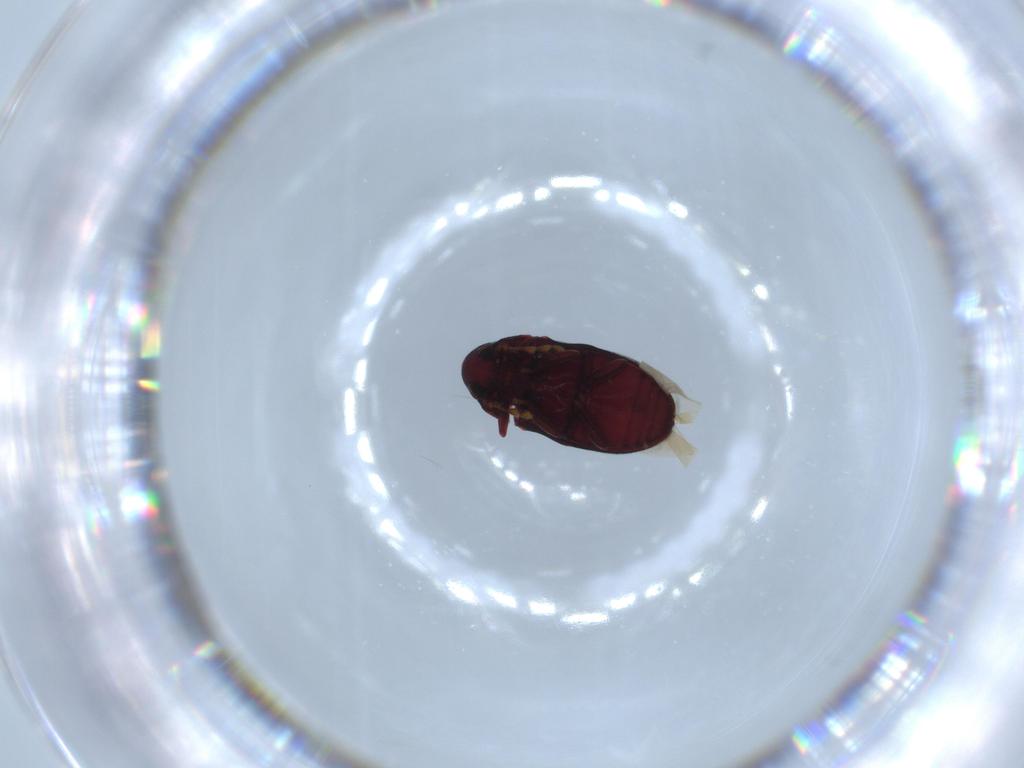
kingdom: Animalia
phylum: Arthropoda
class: Insecta
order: Coleoptera
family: Ptinidae
